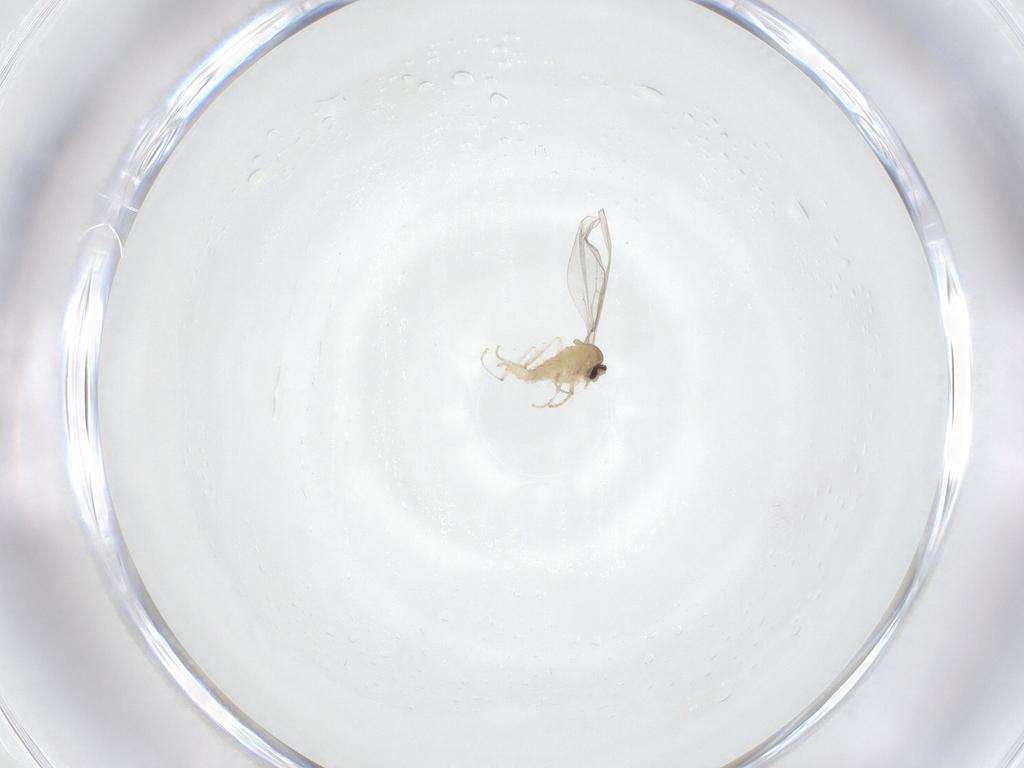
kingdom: Animalia
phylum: Arthropoda
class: Insecta
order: Diptera
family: Cecidomyiidae
